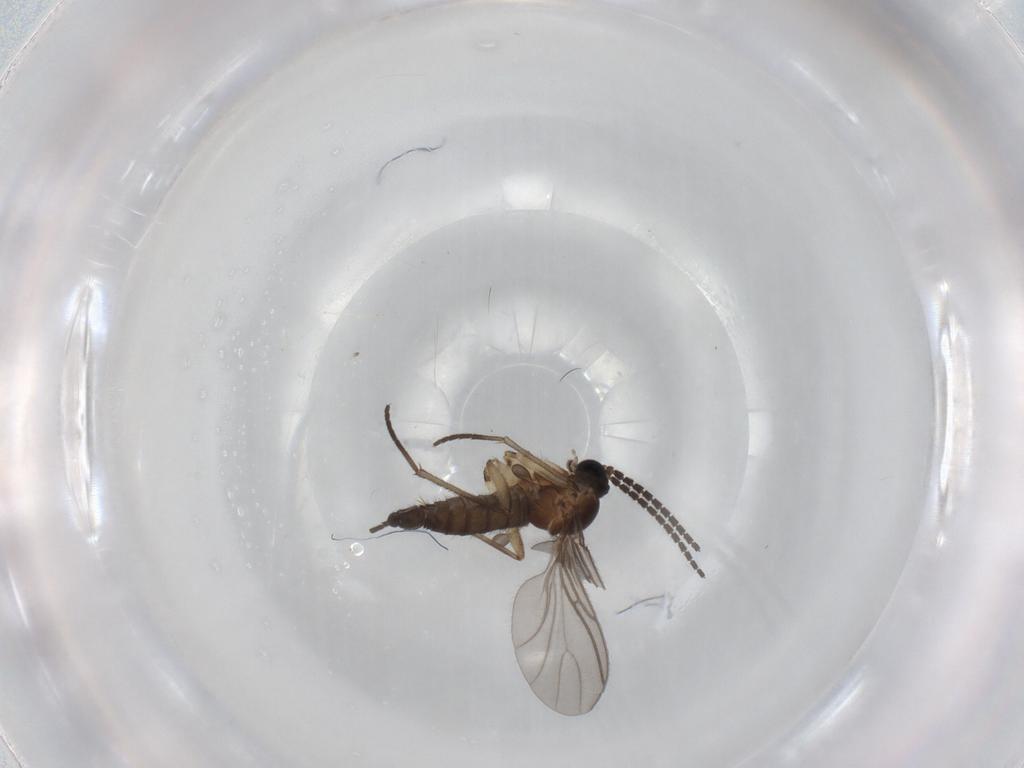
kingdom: Animalia
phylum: Arthropoda
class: Insecta
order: Diptera
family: Sciaridae
